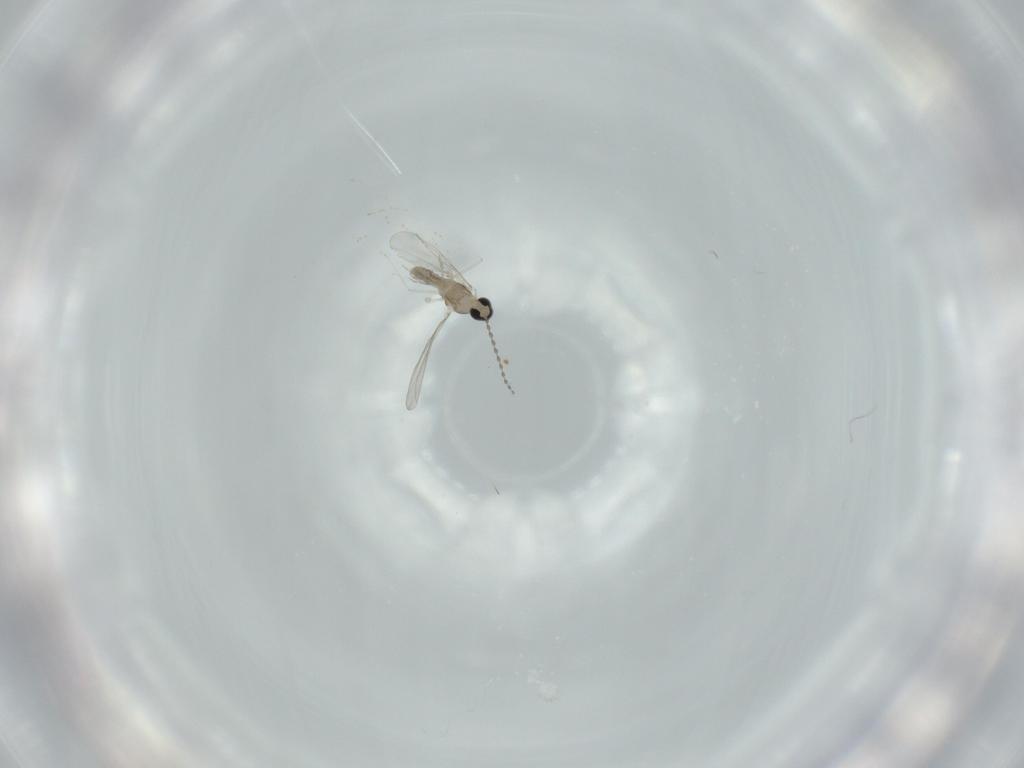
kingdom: Animalia
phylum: Arthropoda
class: Insecta
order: Diptera
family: Cecidomyiidae
